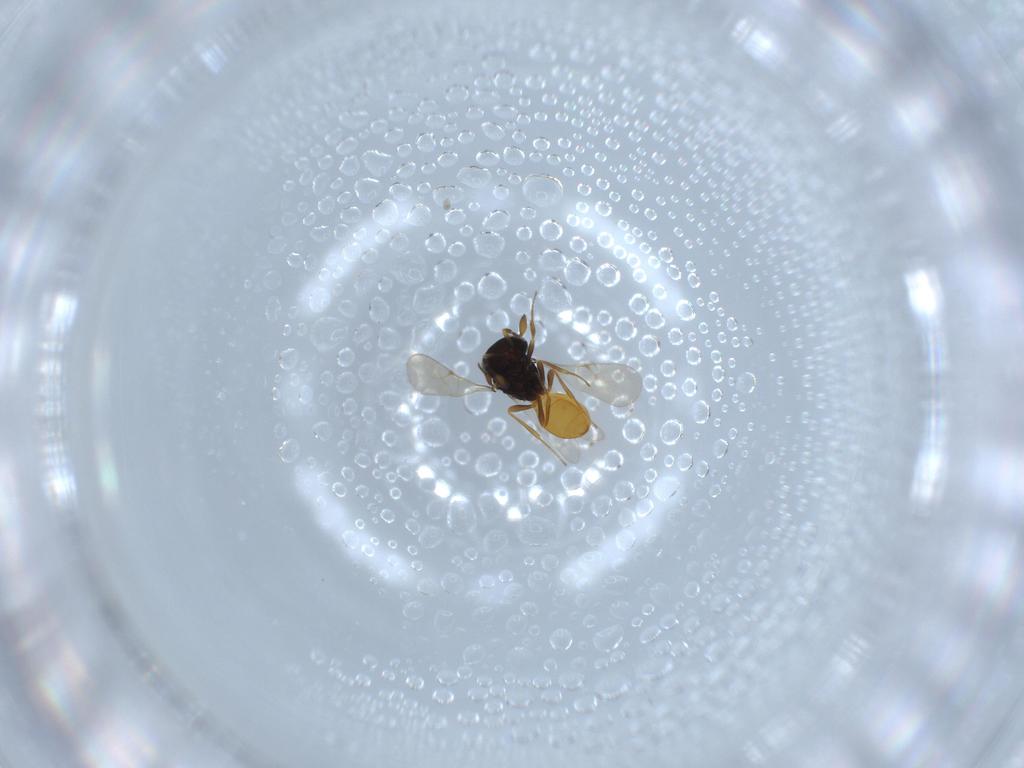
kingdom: Animalia
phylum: Arthropoda
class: Insecta
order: Hymenoptera
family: Scelionidae
